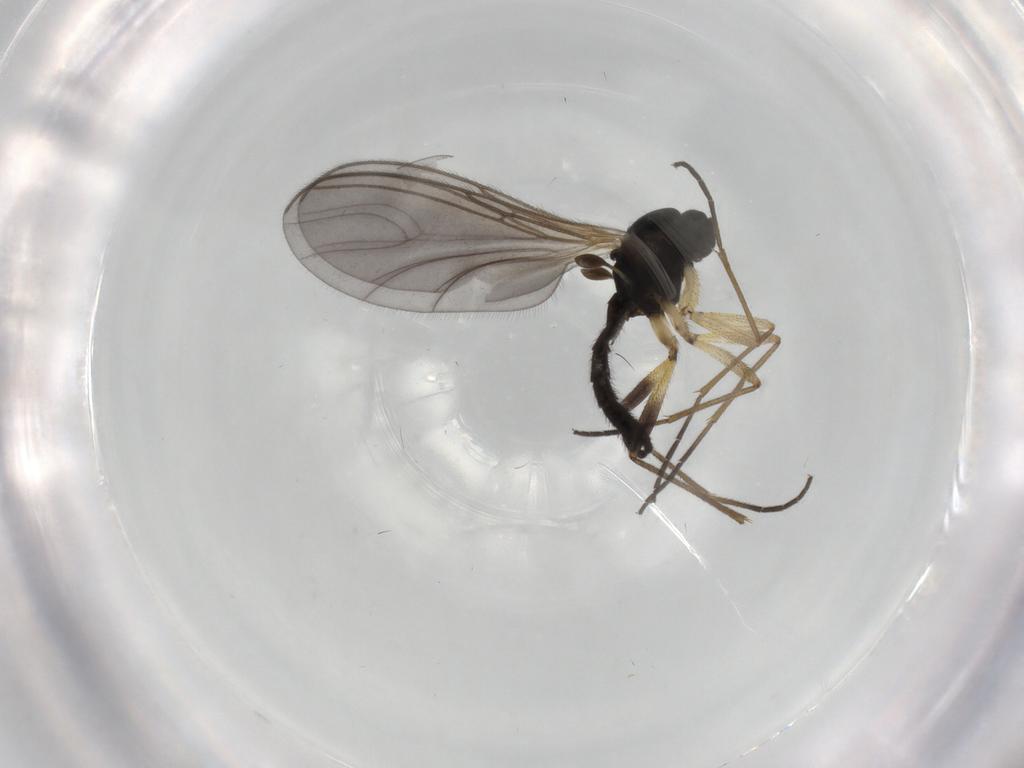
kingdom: Animalia
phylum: Arthropoda
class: Insecta
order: Diptera
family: Sciaridae
